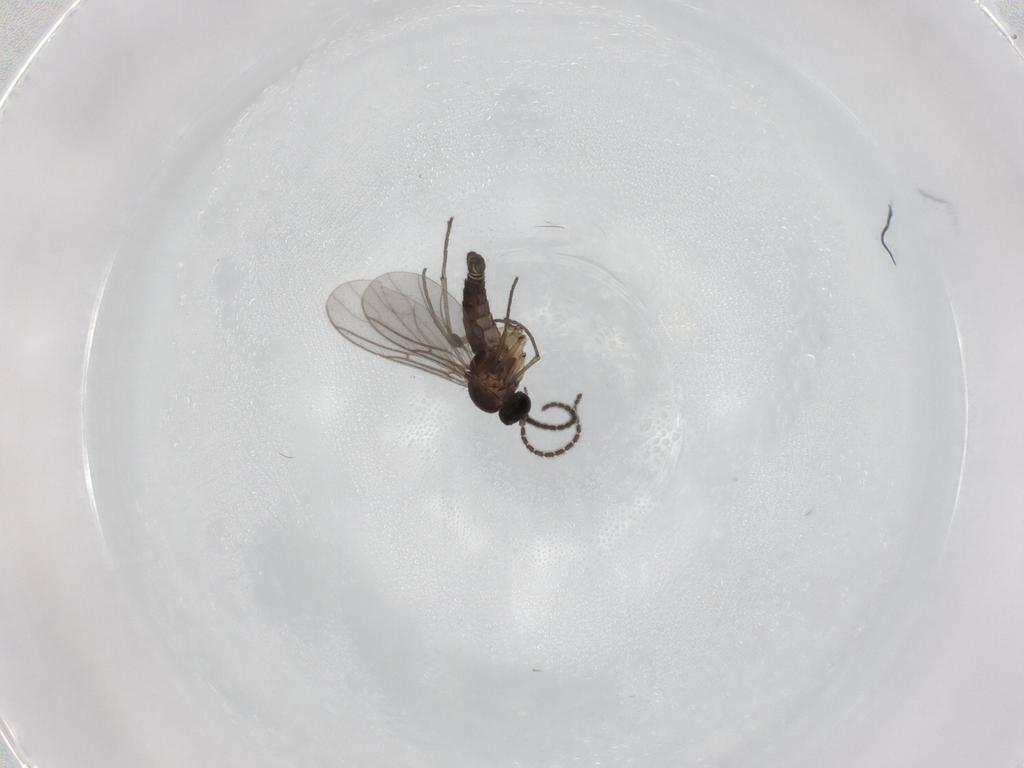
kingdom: Animalia
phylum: Arthropoda
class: Insecta
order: Diptera
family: Sciaridae
